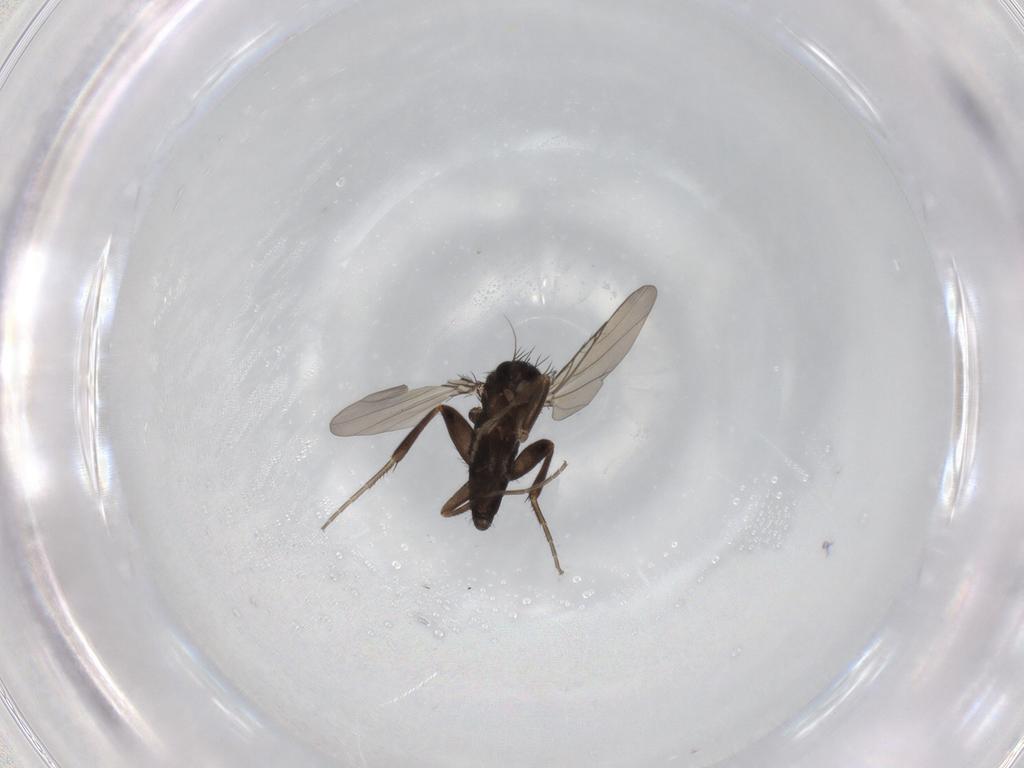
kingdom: Animalia
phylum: Arthropoda
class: Insecta
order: Diptera
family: Phoridae
